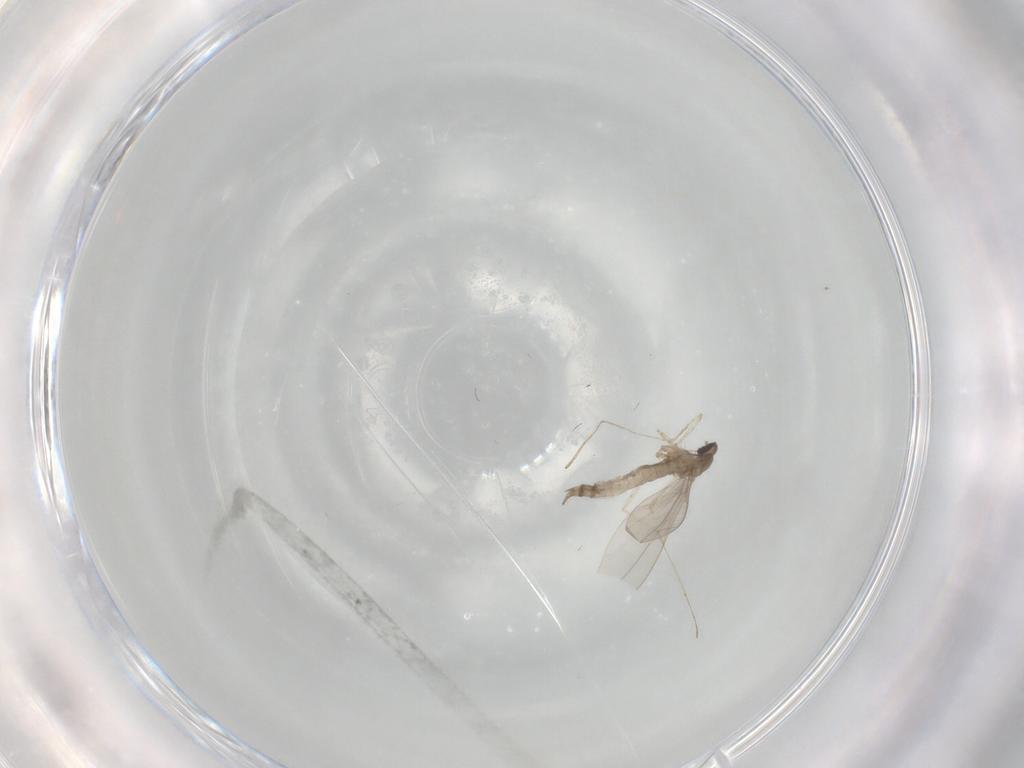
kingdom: Animalia
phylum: Arthropoda
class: Insecta
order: Diptera
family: Cecidomyiidae
